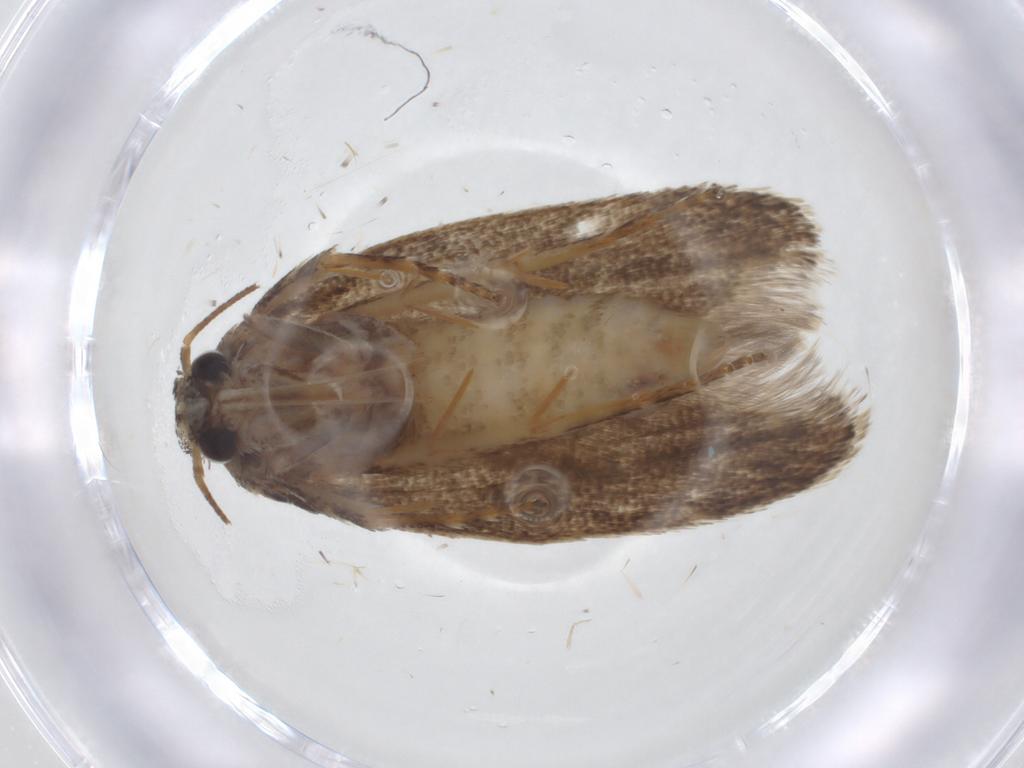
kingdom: Animalia
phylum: Arthropoda
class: Insecta
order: Lepidoptera
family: Oecophoridae
